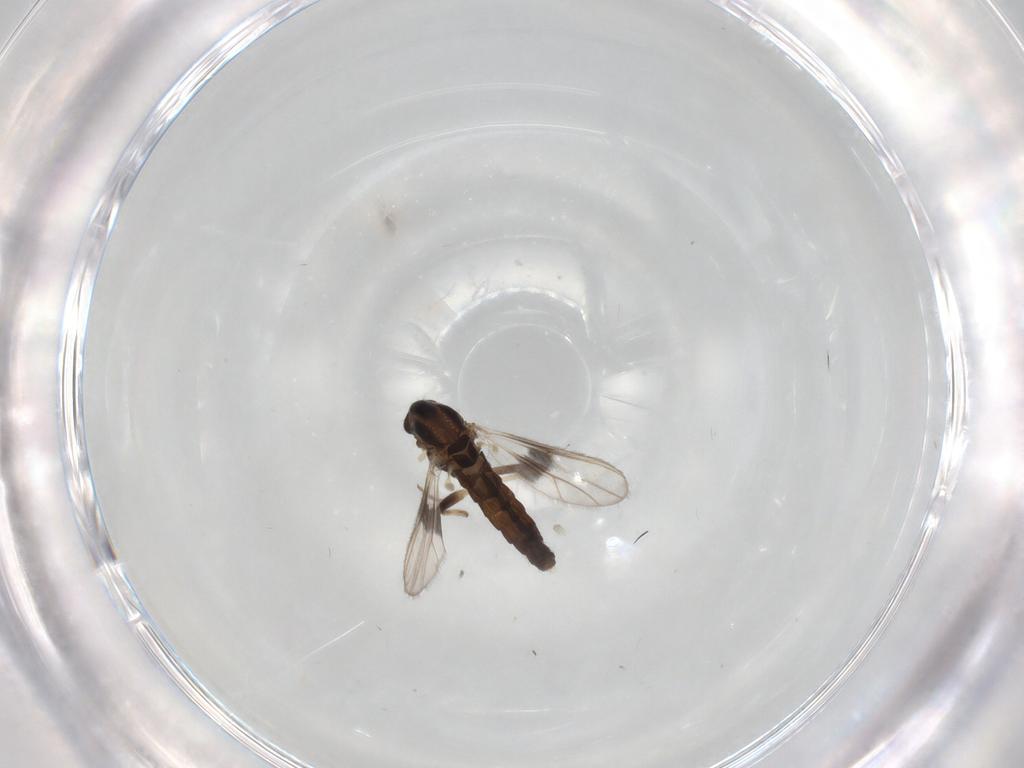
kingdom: Animalia
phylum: Arthropoda
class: Insecta
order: Diptera
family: Chironomidae
